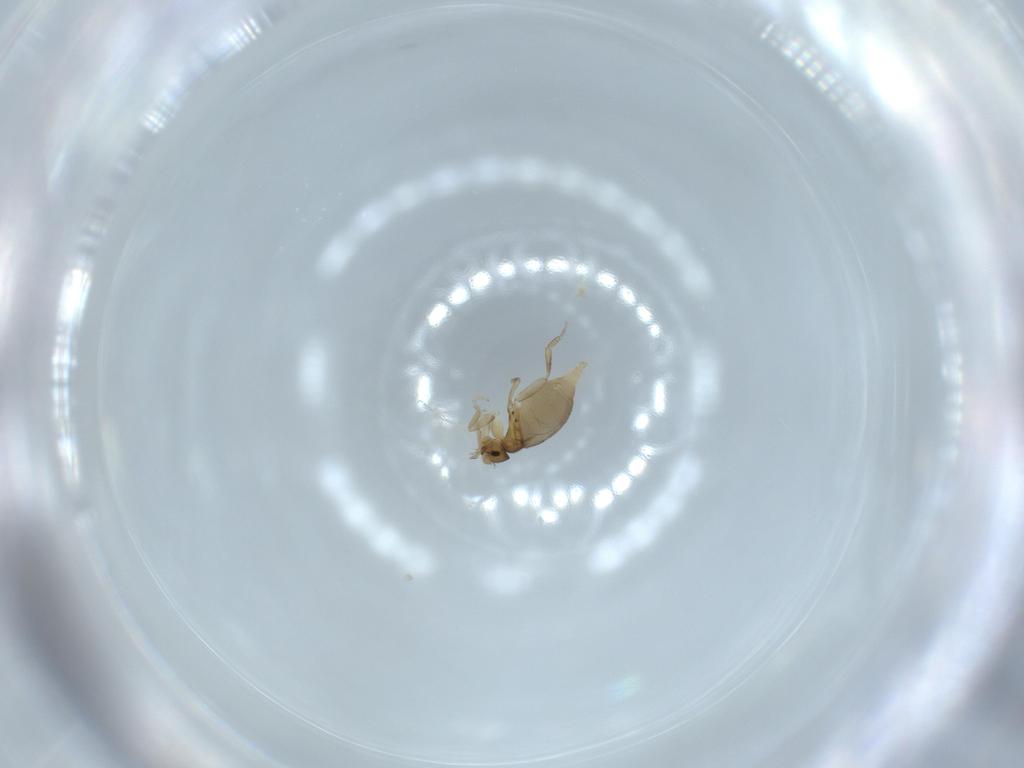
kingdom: Animalia
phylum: Arthropoda
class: Insecta
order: Diptera
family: Phoridae
